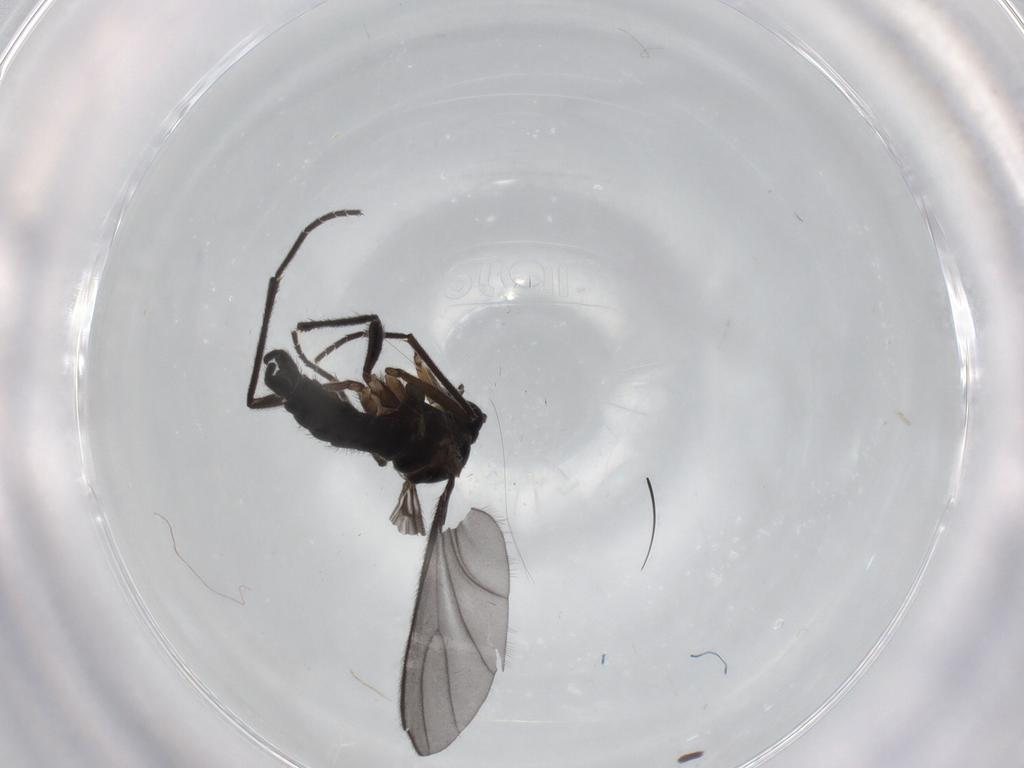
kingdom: Animalia
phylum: Arthropoda
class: Insecta
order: Diptera
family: Sciaridae
